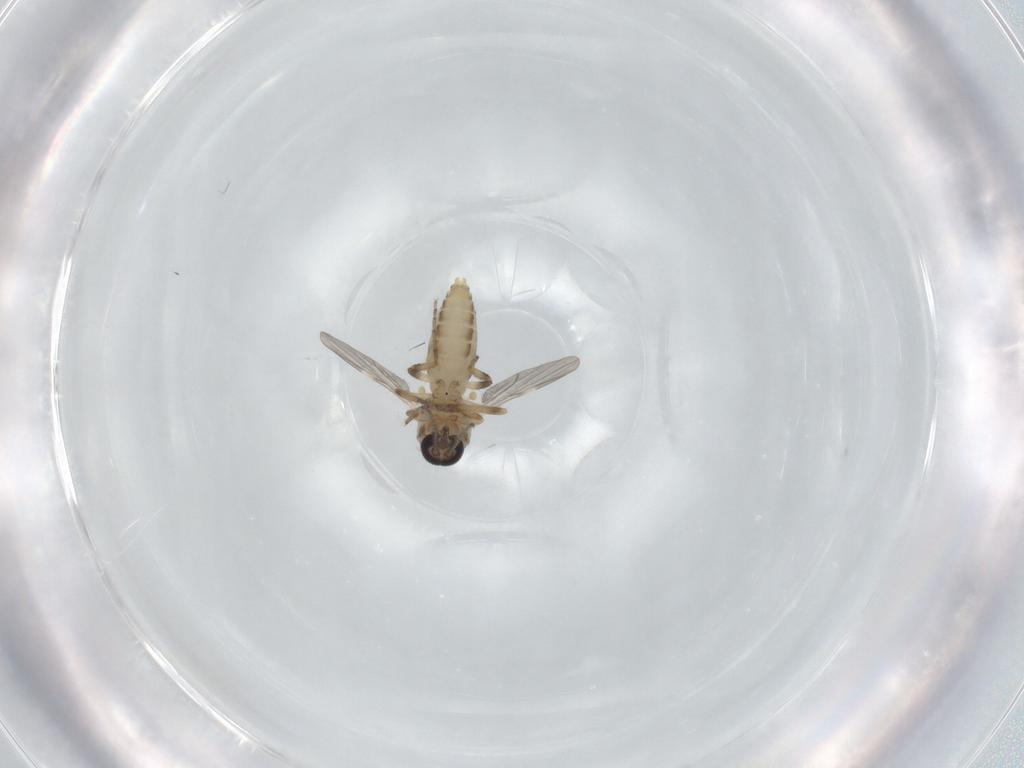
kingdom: Animalia
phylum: Arthropoda
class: Insecta
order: Diptera
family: Ceratopogonidae
